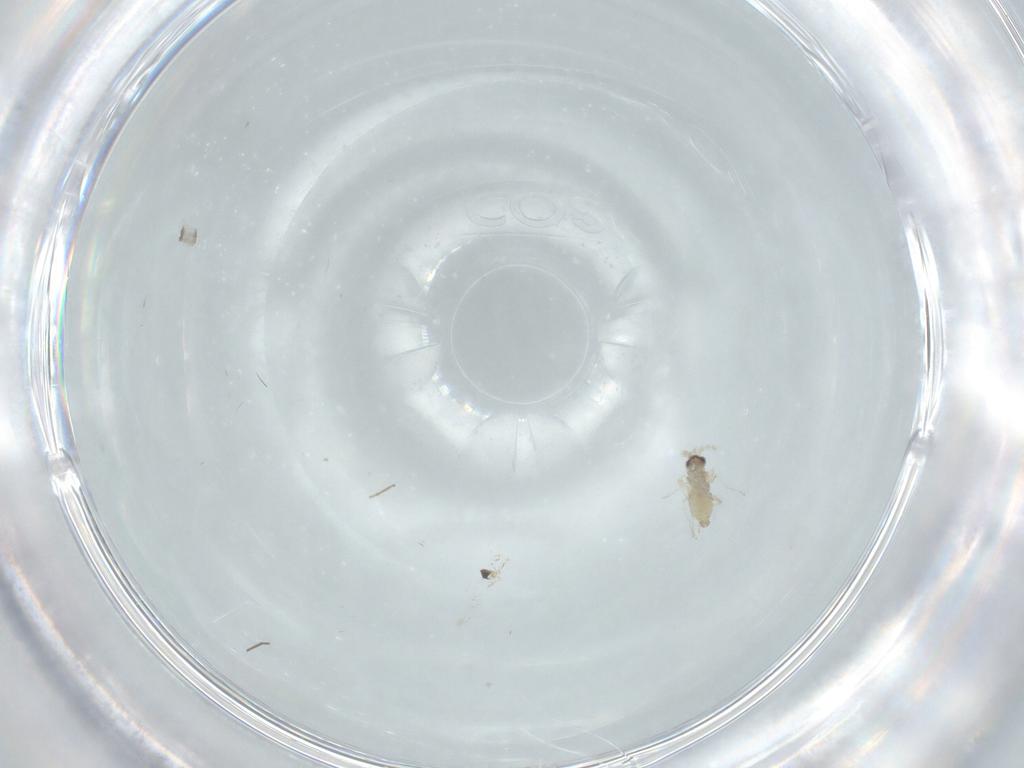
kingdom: Animalia
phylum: Arthropoda
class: Insecta
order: Diptera
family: Chironomidae
